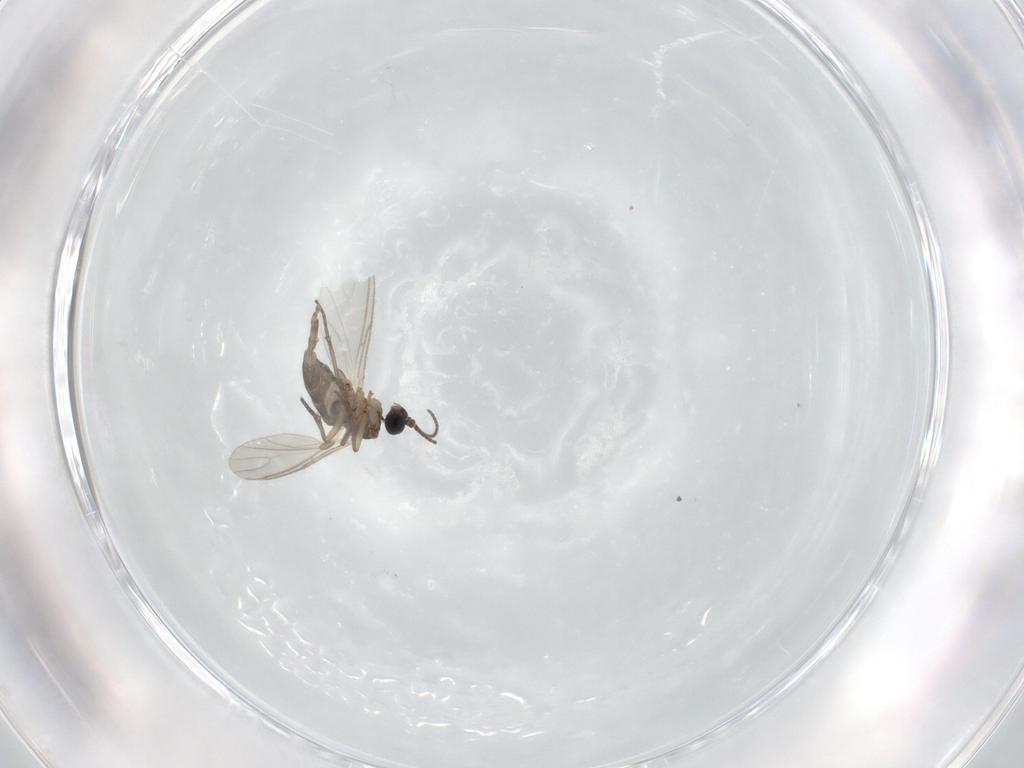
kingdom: Animalia
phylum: Arthropoda
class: Insecta
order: Diptera
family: Sciaridae
